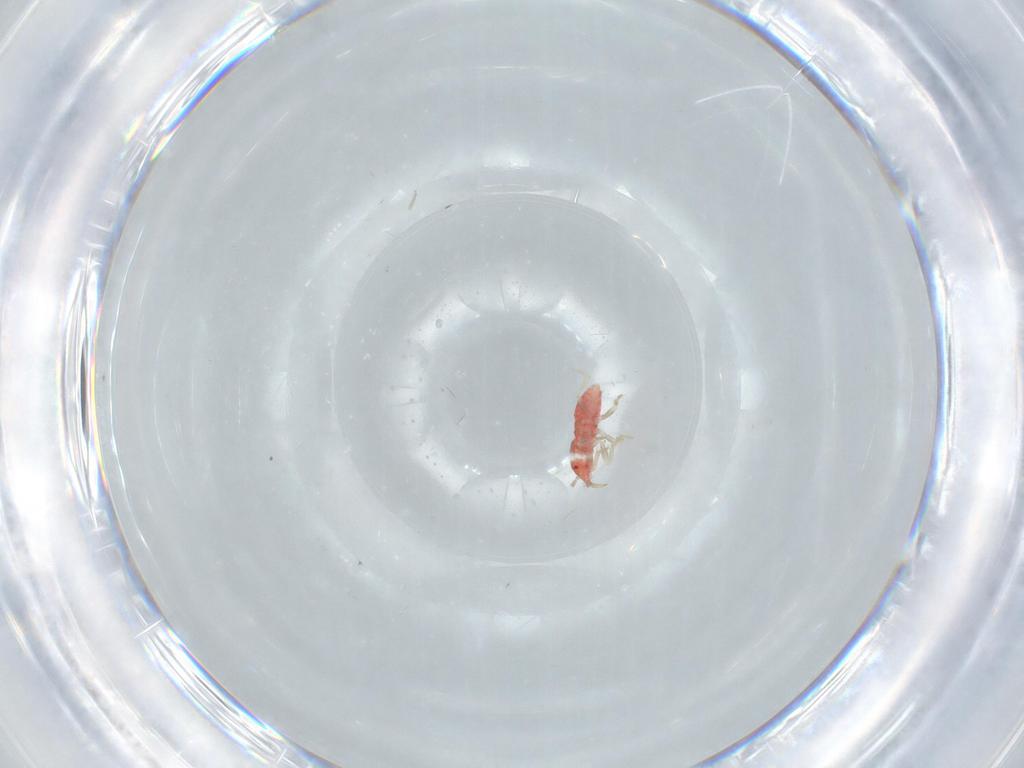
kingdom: Animalia
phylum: Arthropoda
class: Insecta
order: Hemiptera
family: Anthocoridae
